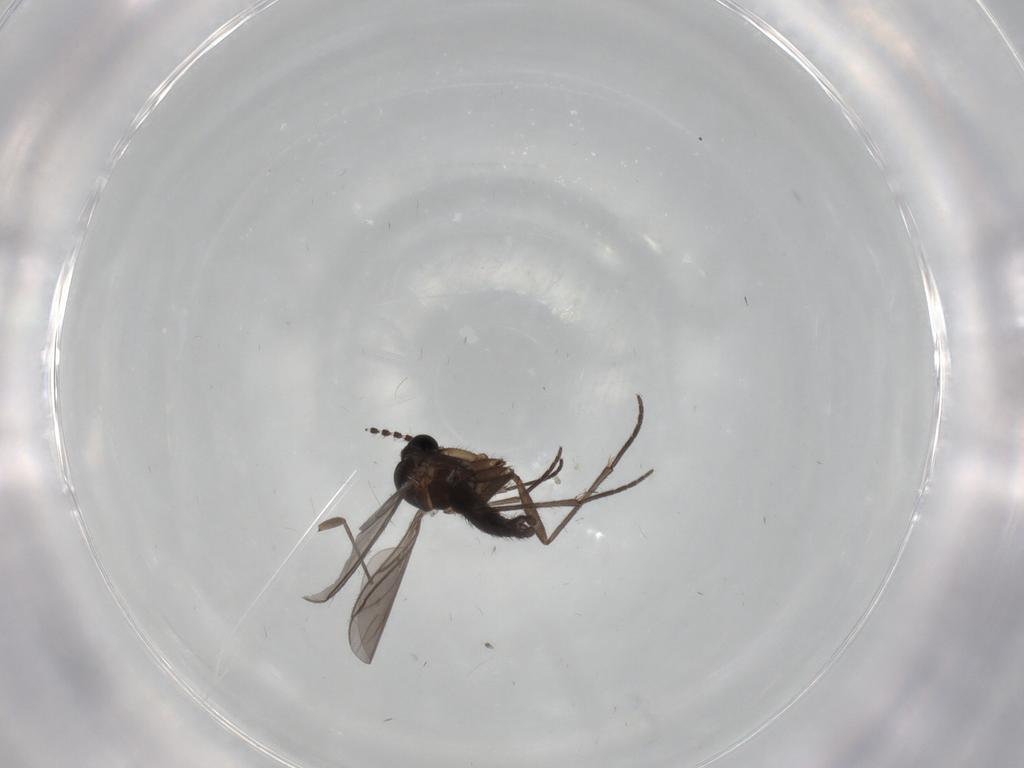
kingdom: Animalia
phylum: Arthropoda
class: Insecta
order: Diptera
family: Sciaridae
